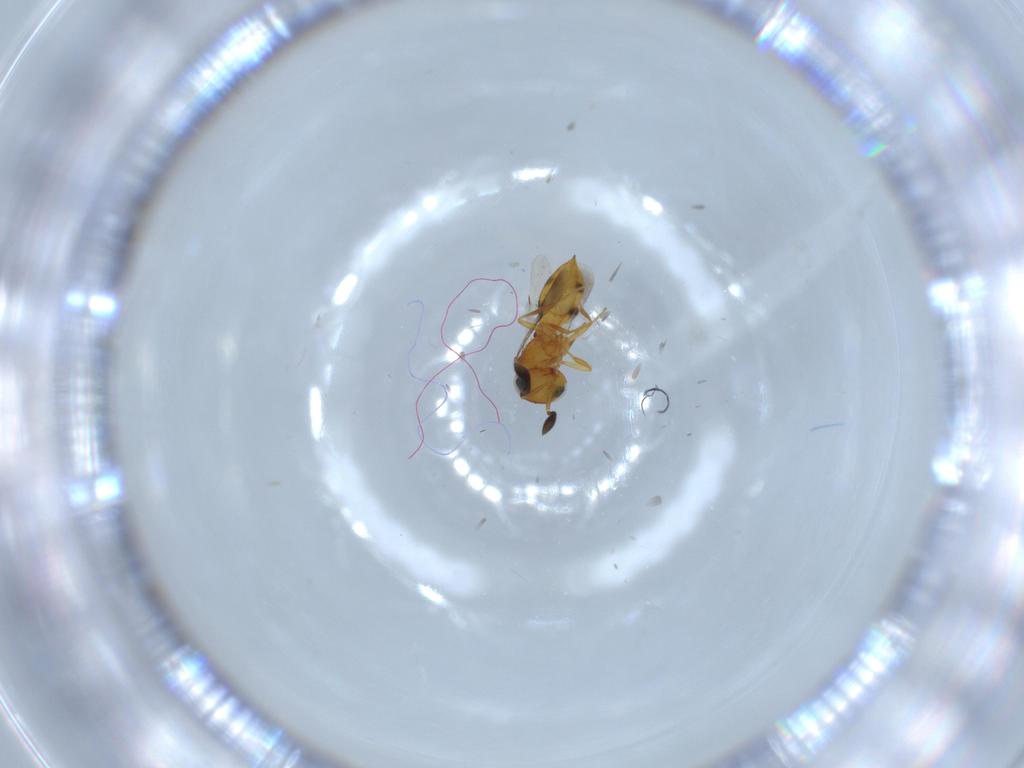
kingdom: Animalia
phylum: Arthropoda
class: Insecta
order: Hymenoptera
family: Scelionidae
